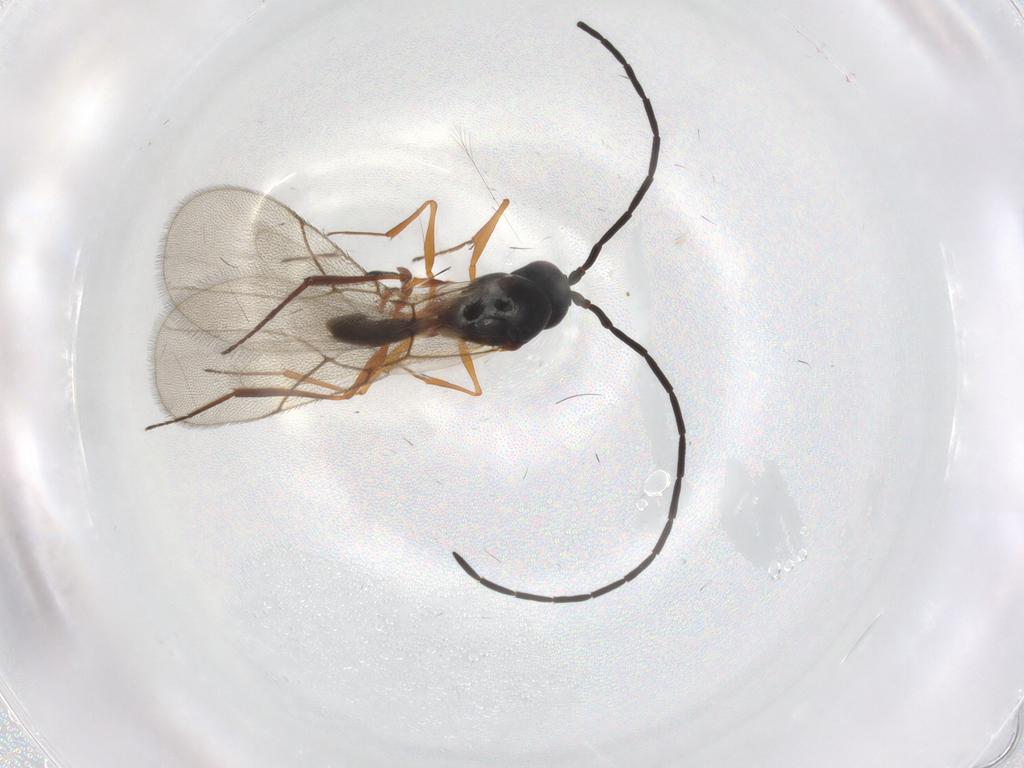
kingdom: Animalia
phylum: Arthropoda
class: Insecta
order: Hymenoptera
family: Figitidae
